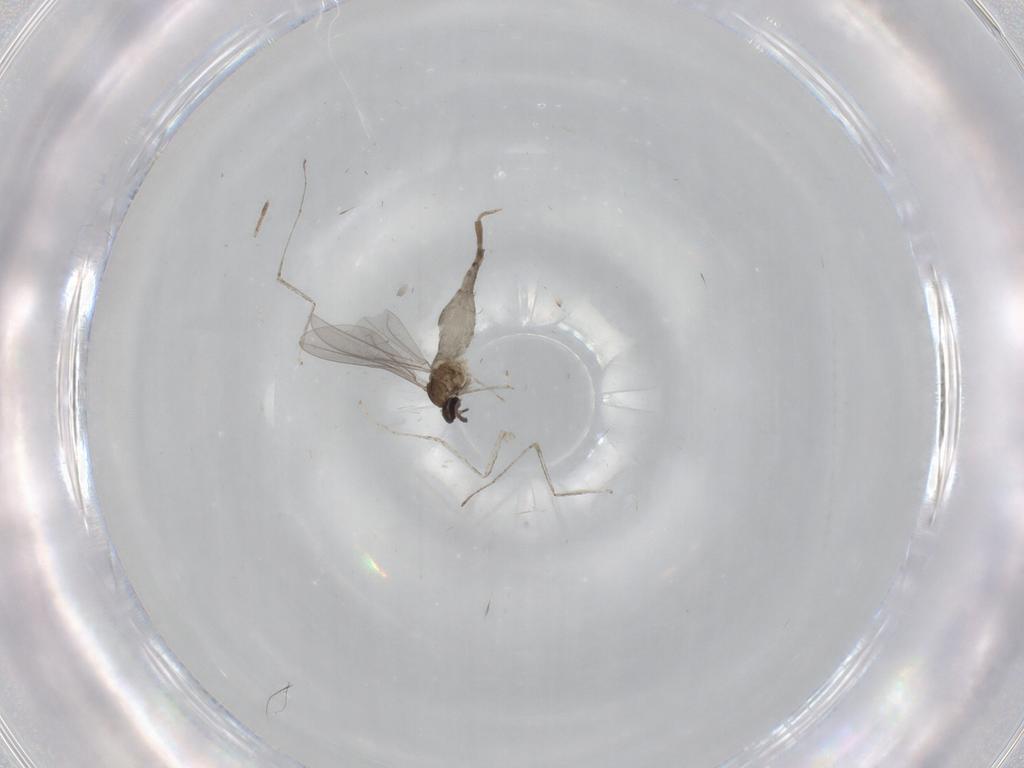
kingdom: Animalia
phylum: Arthropoda
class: Insecta
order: Diptera
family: Cecidomyiidae
